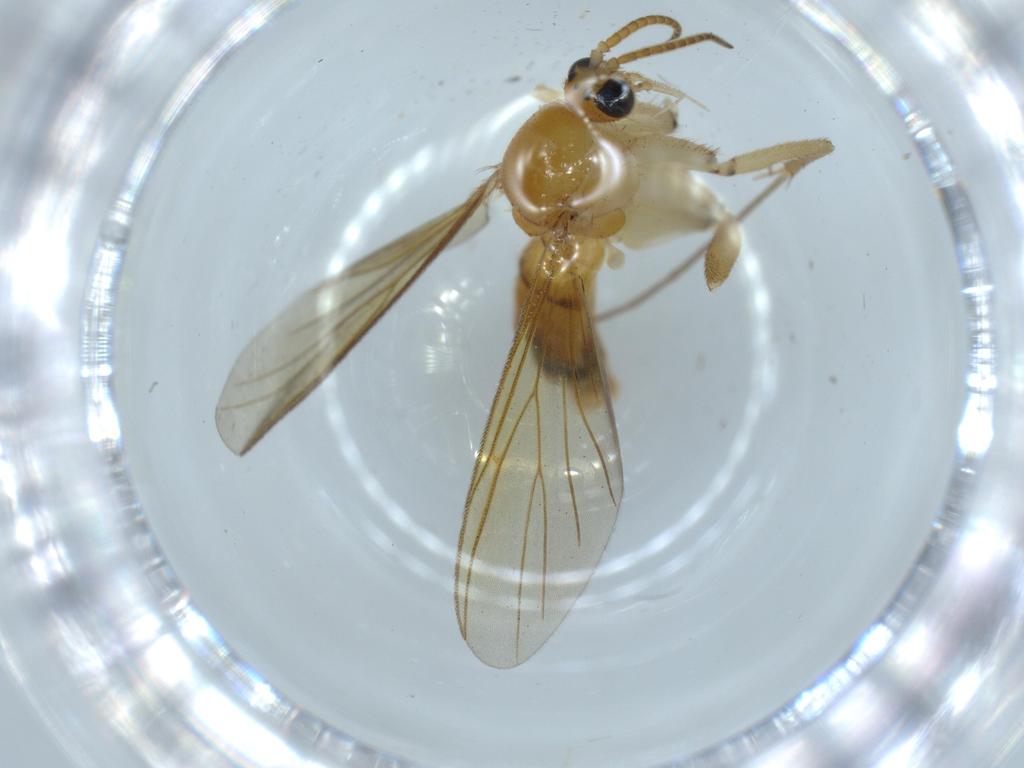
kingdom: Animalia
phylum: Arthropoda
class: Insecta
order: Diptera
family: Mycetophilidae
